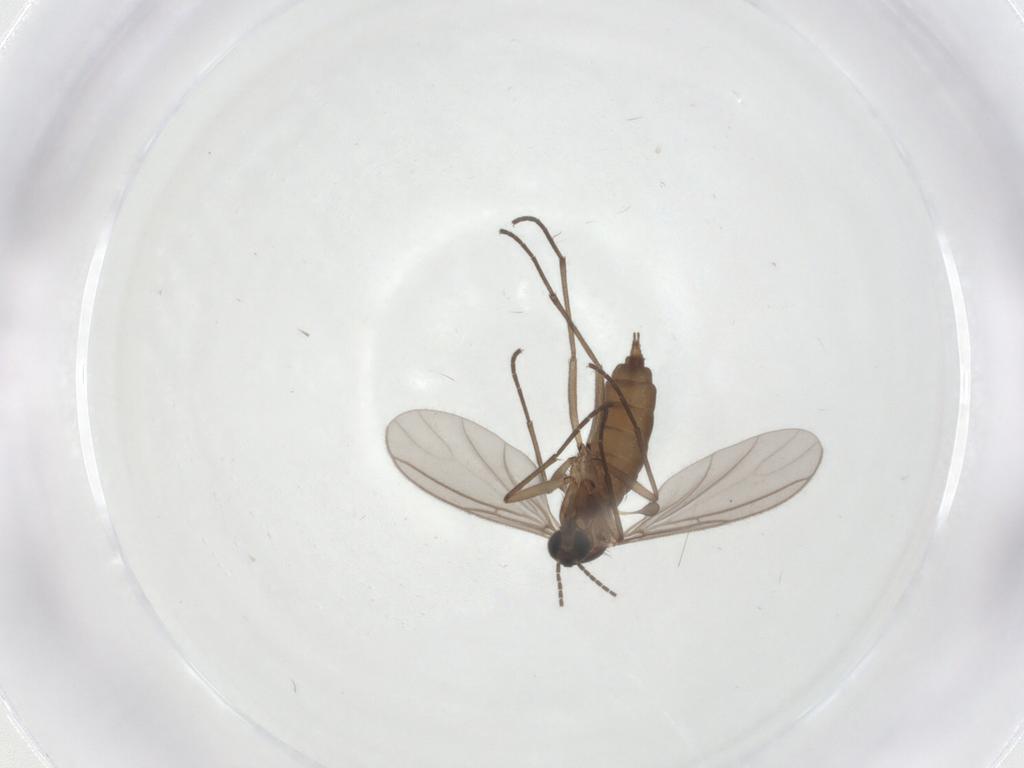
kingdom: Animalia
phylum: Arthropoda
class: Insecta
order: Diptera
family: Sciaridae
